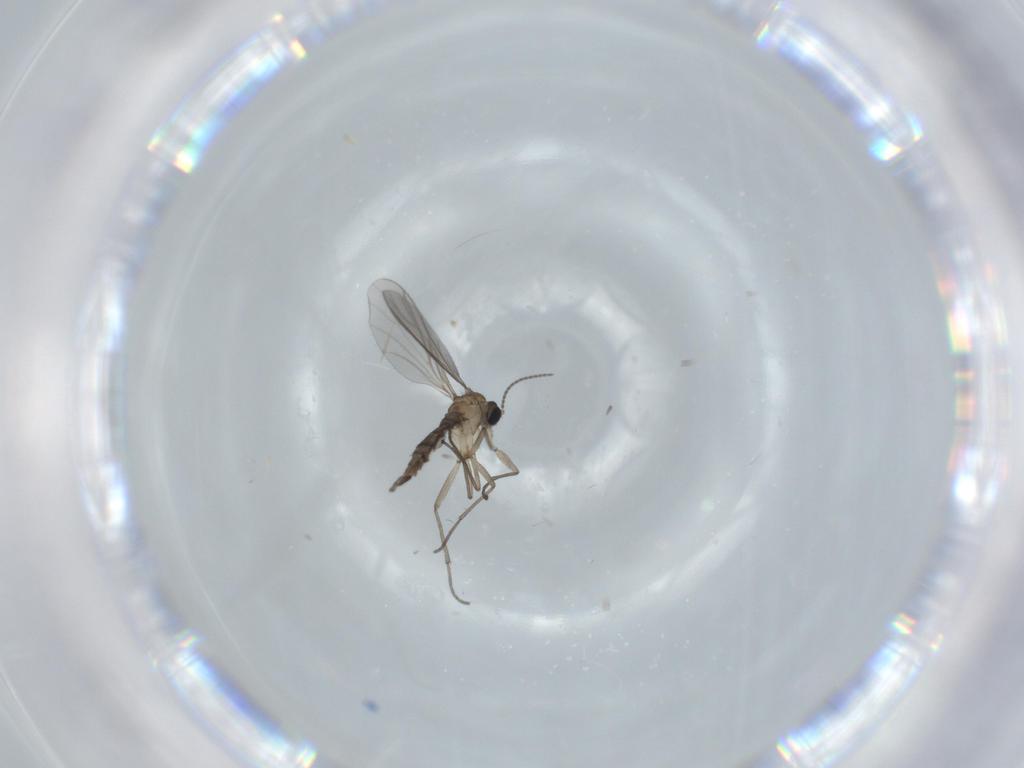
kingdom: Animalia
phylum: Arthropoda
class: Insecta
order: Diptera
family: Sciaridae
